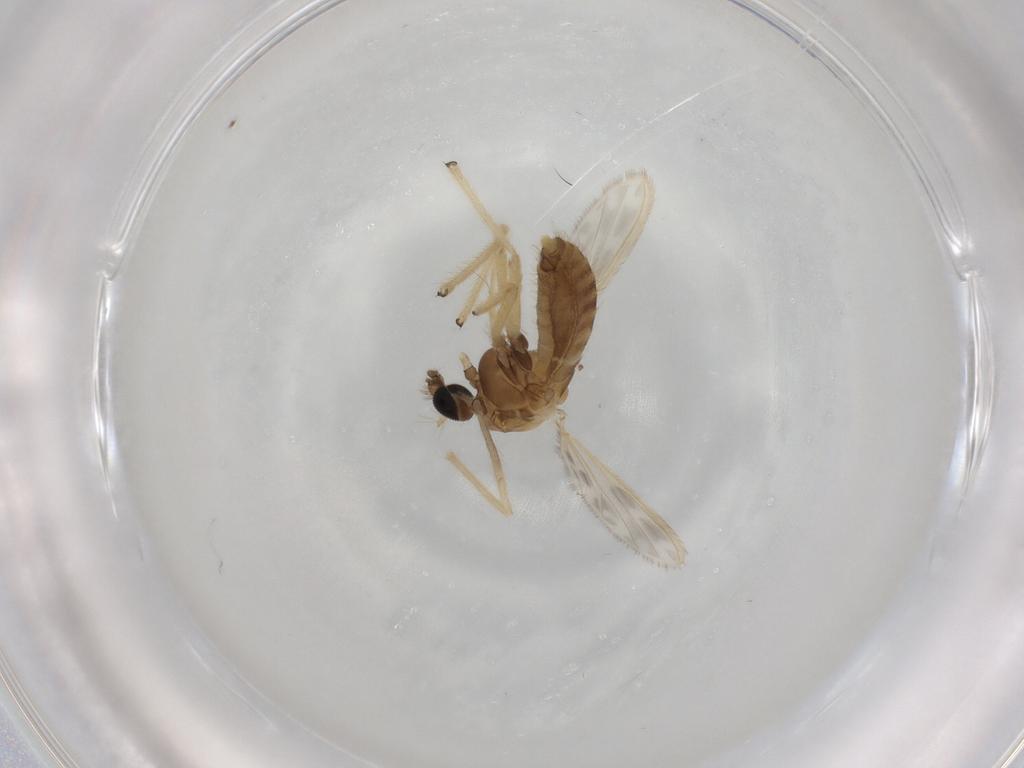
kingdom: Animalia
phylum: Arthropoda
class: Insecta
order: Diptera
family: Chironomidae
